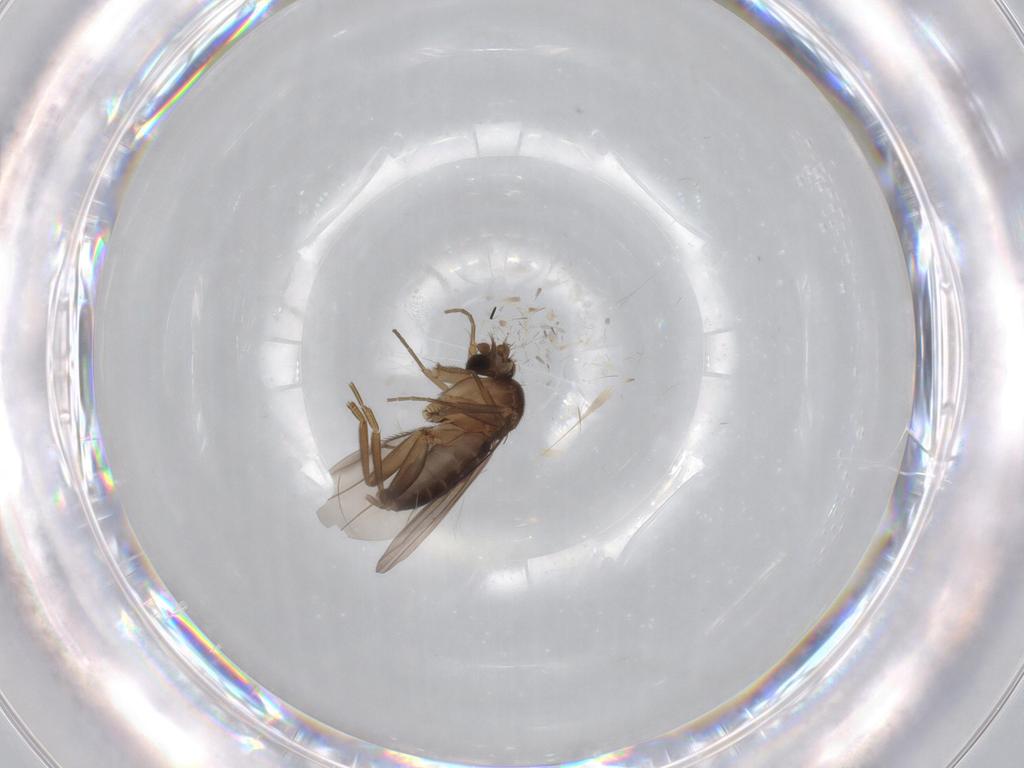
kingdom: Animalia
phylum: Arthropoda
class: Insecta
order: Diptera
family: Phoridae
